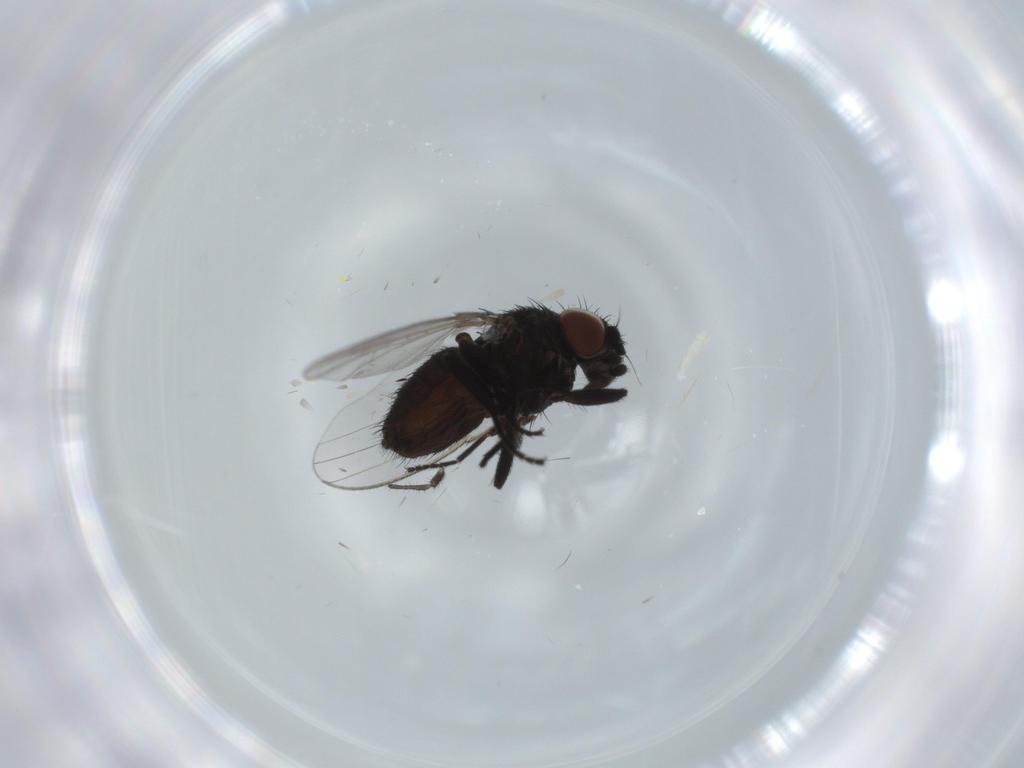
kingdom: Animalia
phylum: Arthropoda
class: Insecta
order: Diptera
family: Milichiidae
